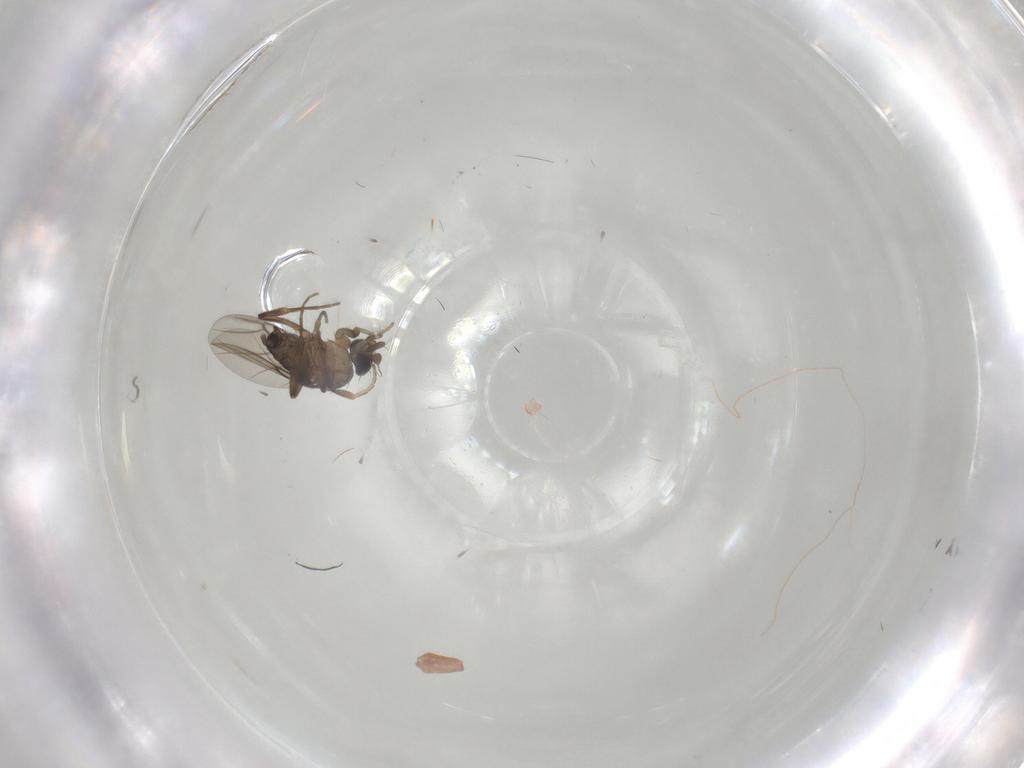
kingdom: Animalia
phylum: Arthropoda
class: Insecta
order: Diptera
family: Chironomidae
